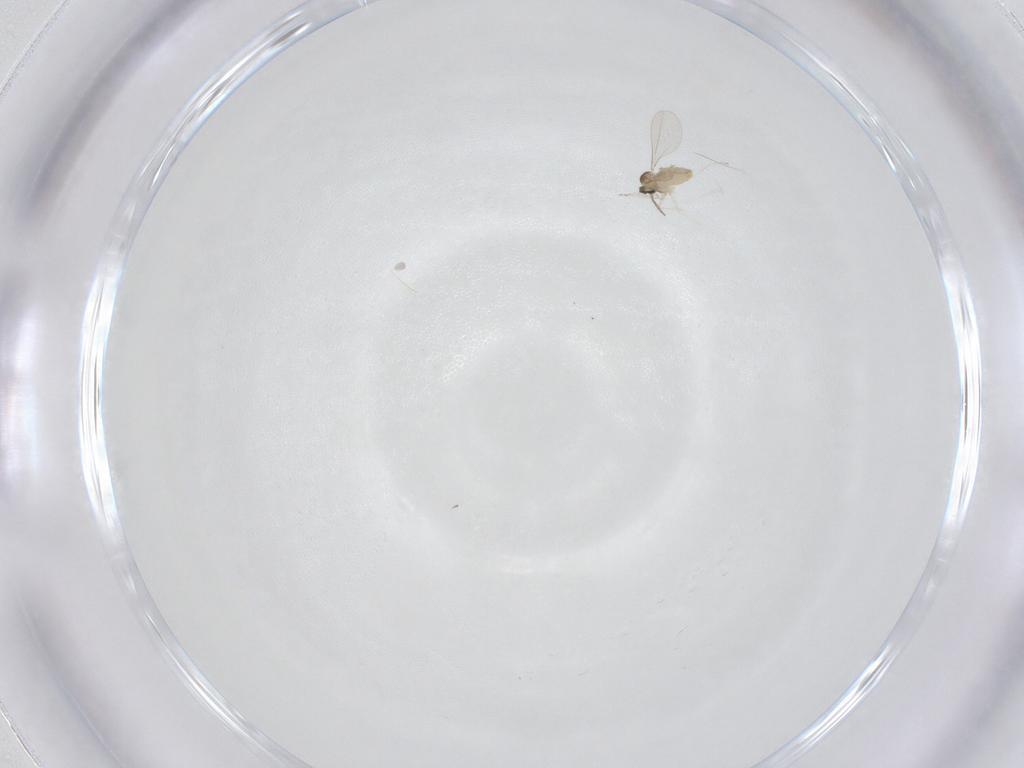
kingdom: Animalia
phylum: Arthropoda
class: Insecta
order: Diptera
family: Cecidomyiidae
